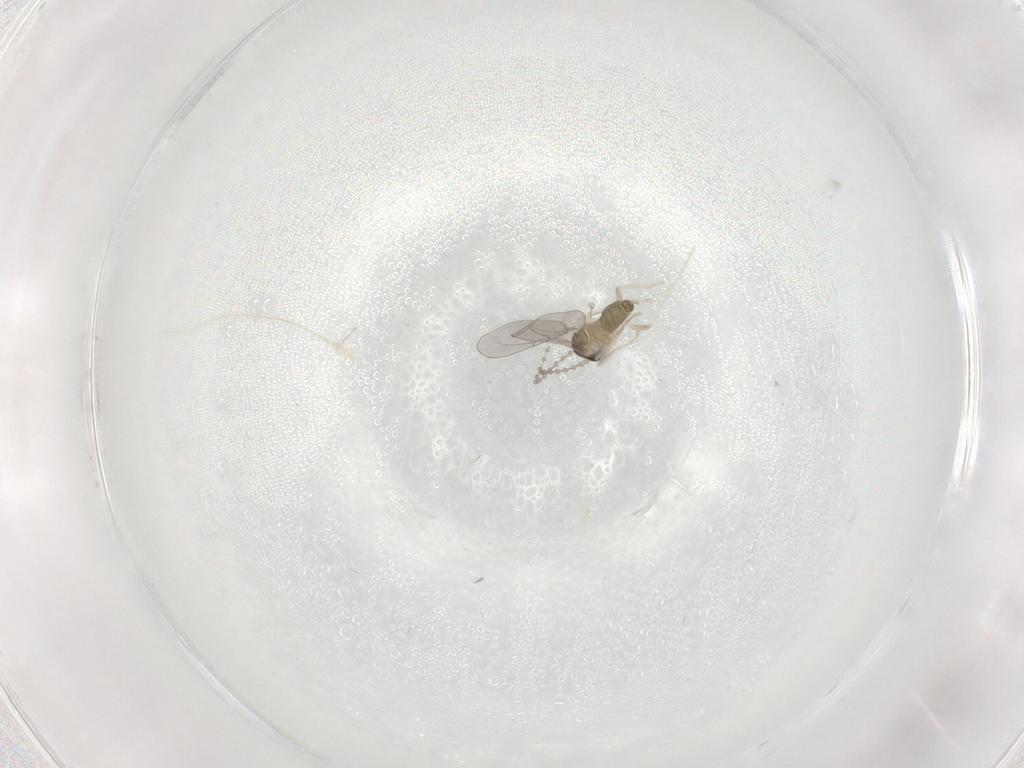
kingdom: Animalia
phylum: Arthropoda
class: Insecta
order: Diptera
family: Cecidomyiidae
